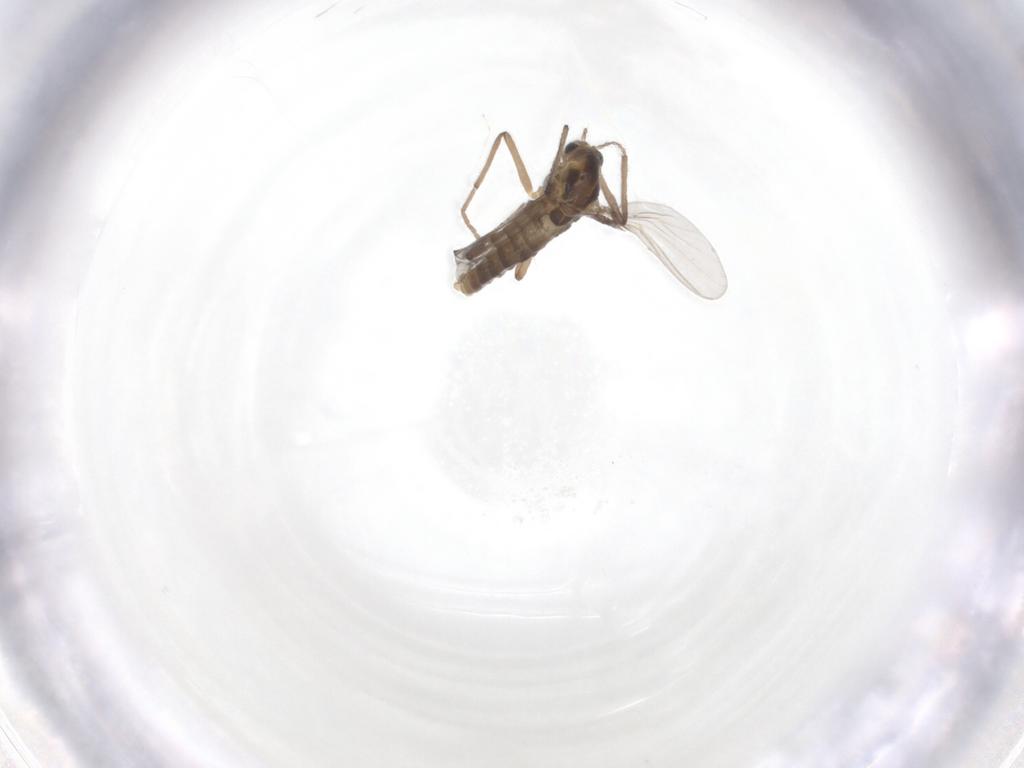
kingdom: Animalia
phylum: Arthropoda
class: Insecta
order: Diptera
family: Chironomidae
